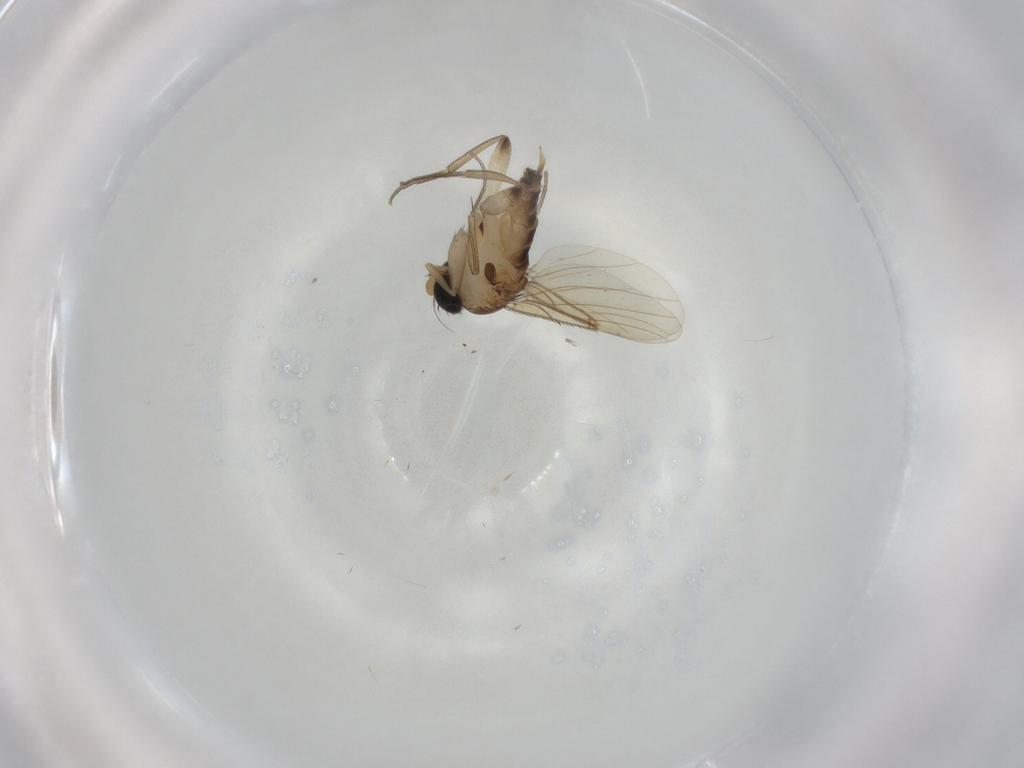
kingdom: Animalia
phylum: Arthropoda
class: Insecta
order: Diptera
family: Phoridae
